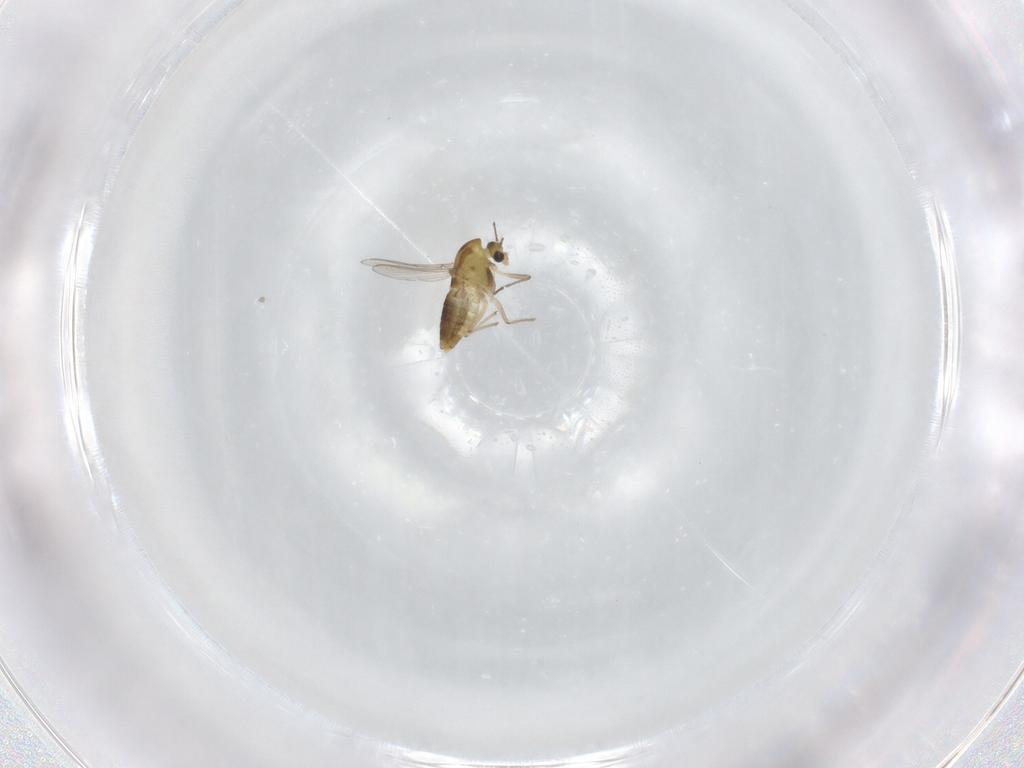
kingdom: Animalia
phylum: Arthropoda
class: Insecta
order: Diptera
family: Chironomidae
